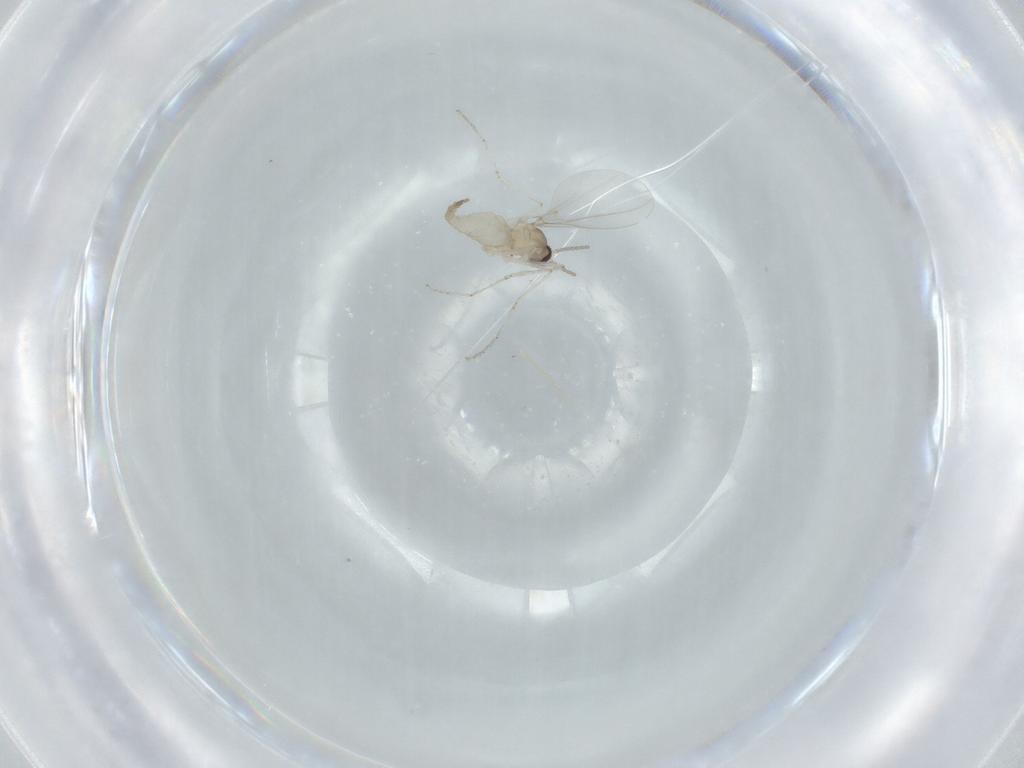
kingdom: Animalia
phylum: Arthropoda
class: Insecta
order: Diptera
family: Cecidomyiidae
